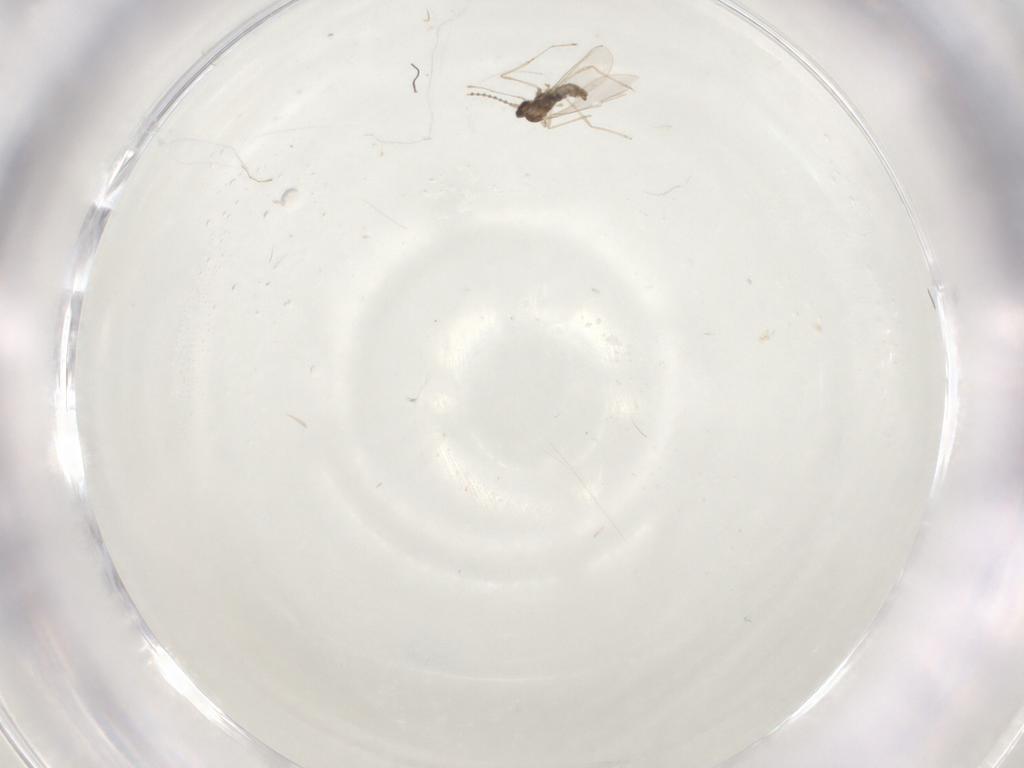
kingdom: Animalia
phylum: Arthropoda
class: Insecta
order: Diptera
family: Cecidomyiidae
